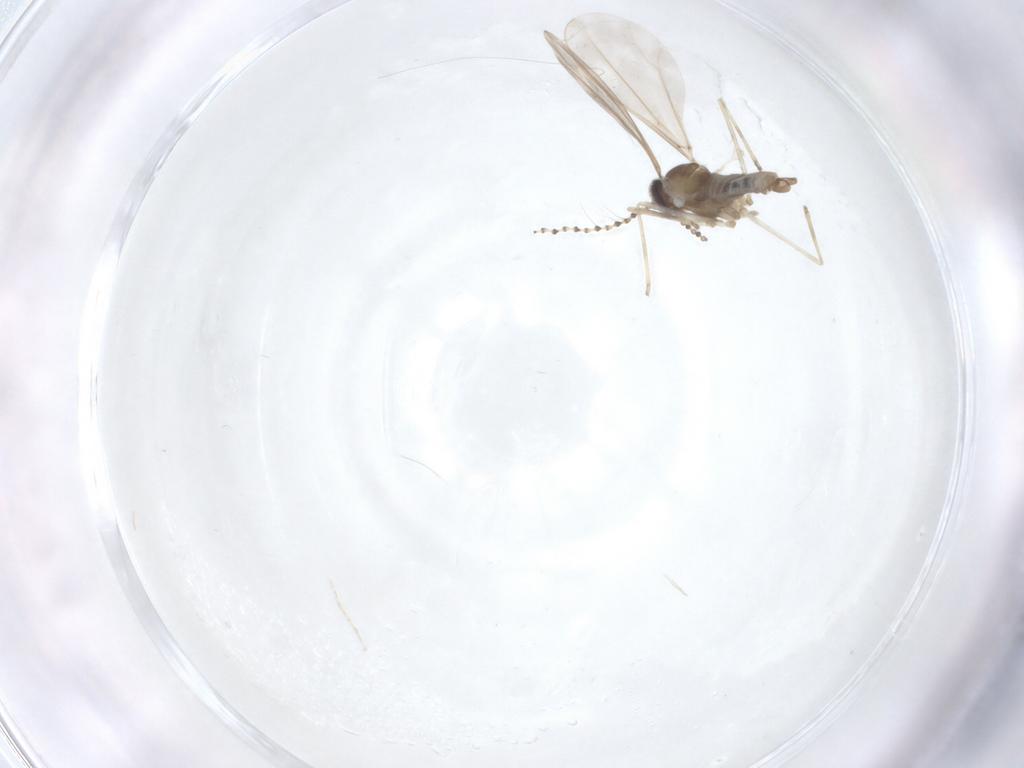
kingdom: Animalia
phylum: Arthropoda
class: Insecta
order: Diptera
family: Cecidomyiidae
